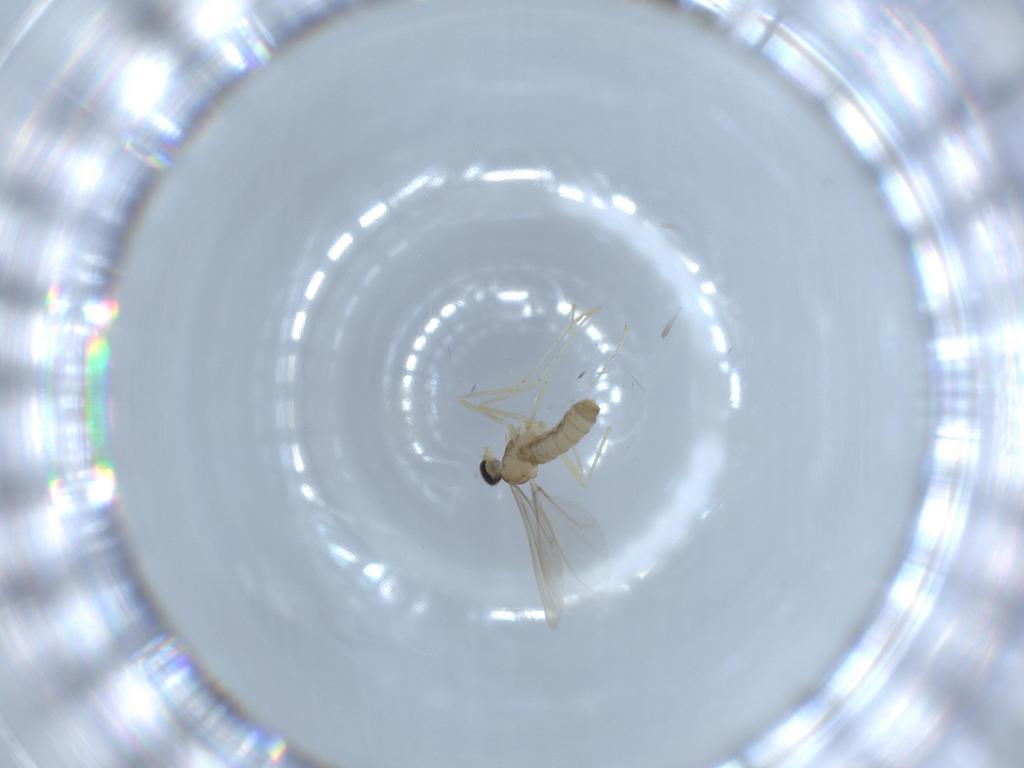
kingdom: Animalia
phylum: Arthropoda
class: Insecta
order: Diptera
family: Cecidomyiidae
